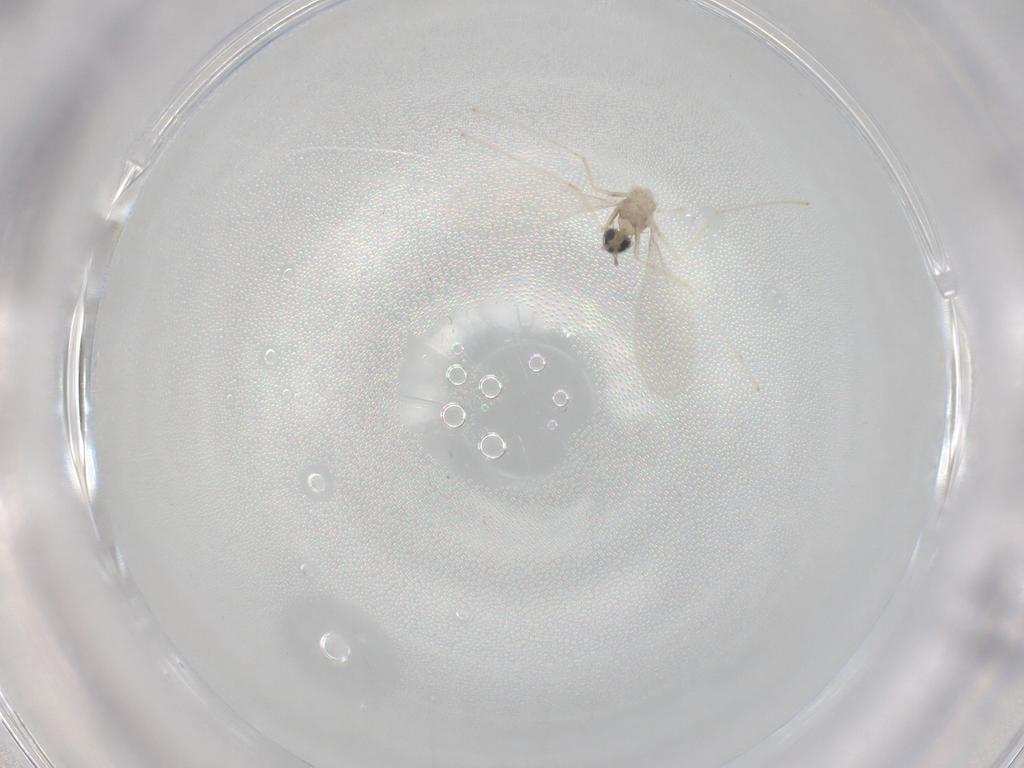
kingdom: Animalia
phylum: Arthropoda
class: Insecta
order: Diptera
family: Cecidomyiidae
